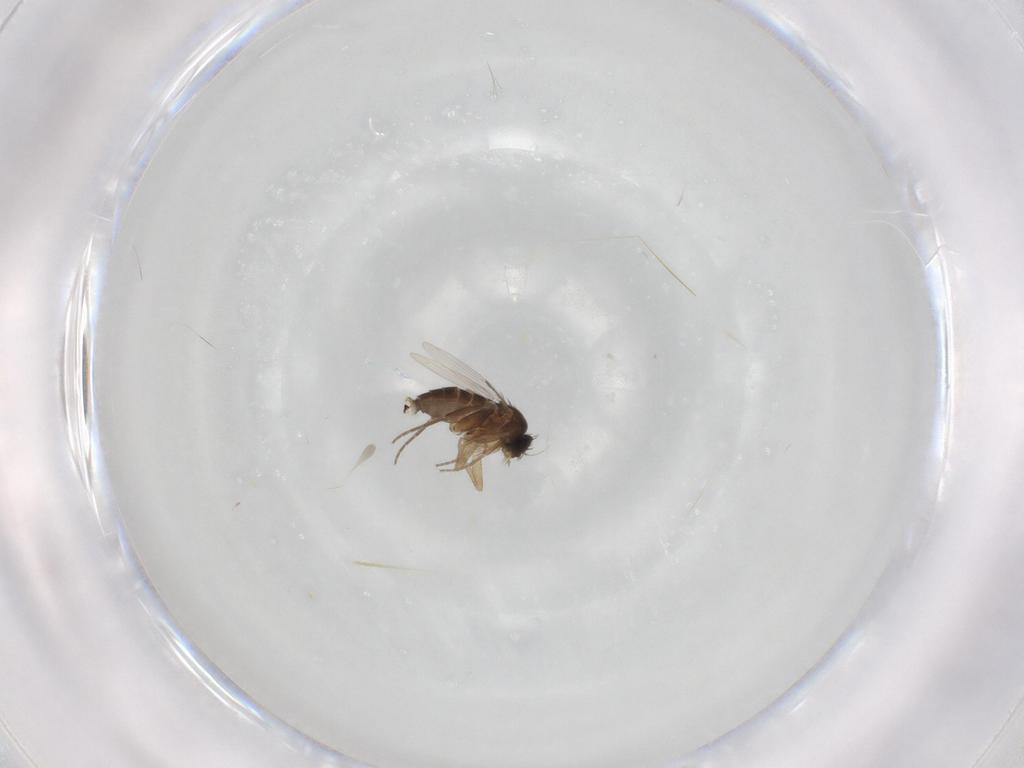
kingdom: Animalia
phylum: Arthropoda
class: Insecta
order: Diptera
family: Phoridae
